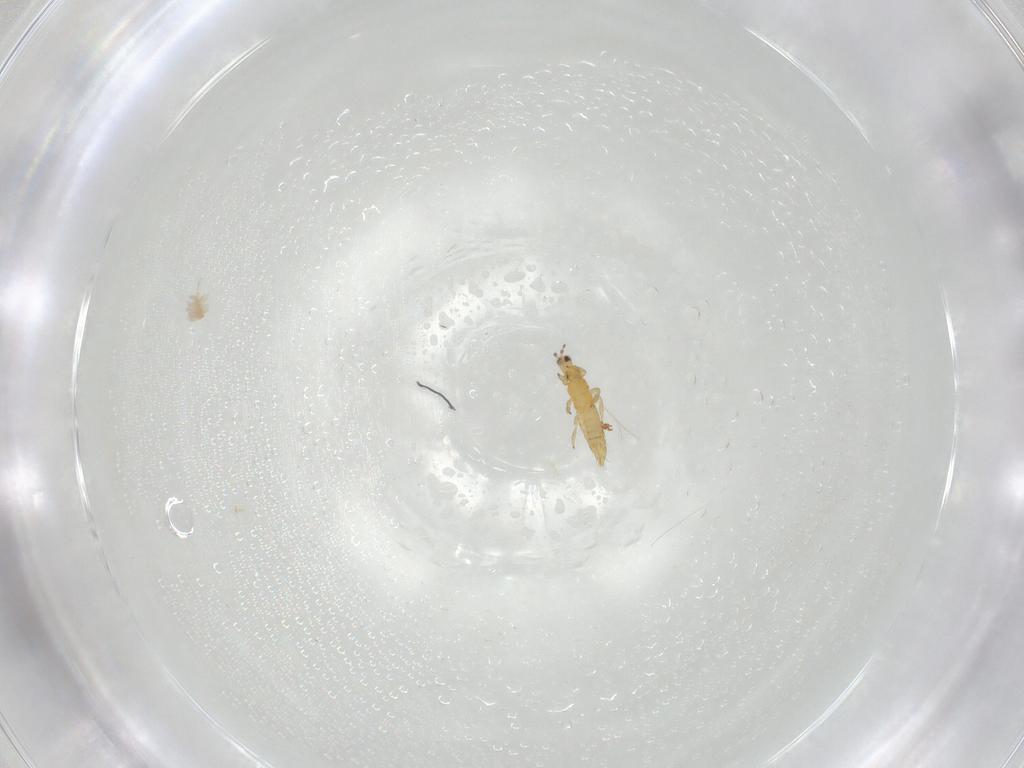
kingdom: Animalia
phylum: Arthropoda
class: Insecta
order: Thysanoptera
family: Thripidae
